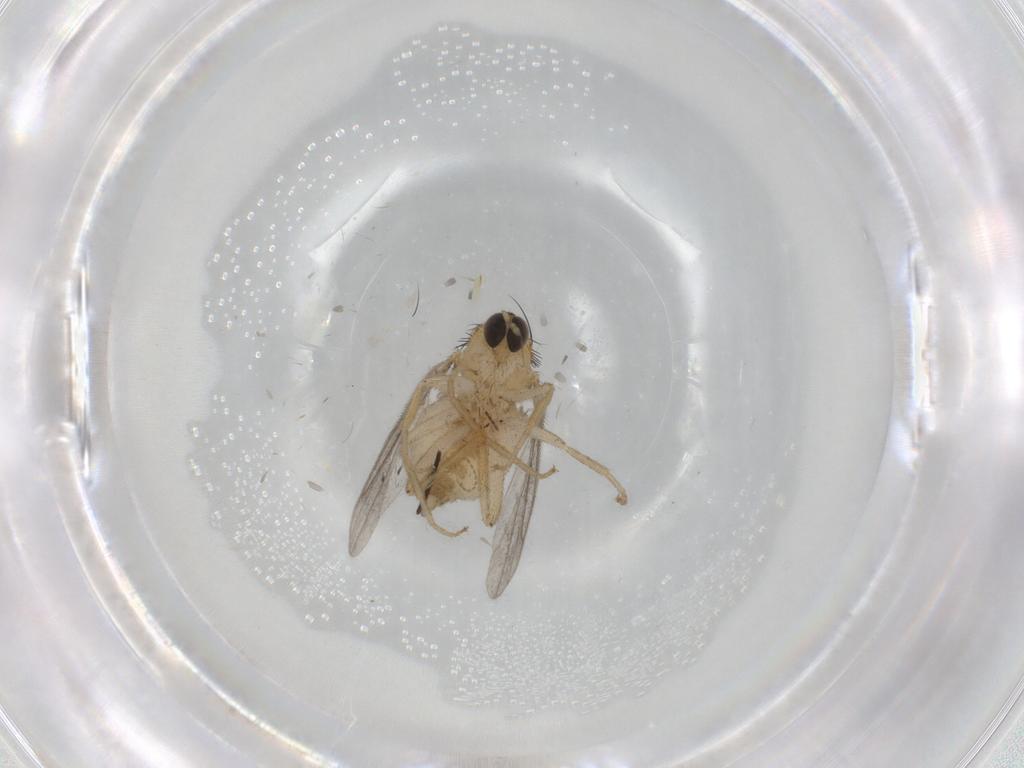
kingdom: Animalia
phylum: Arthropoda
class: Insecta
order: Diptera
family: Hybotidae
